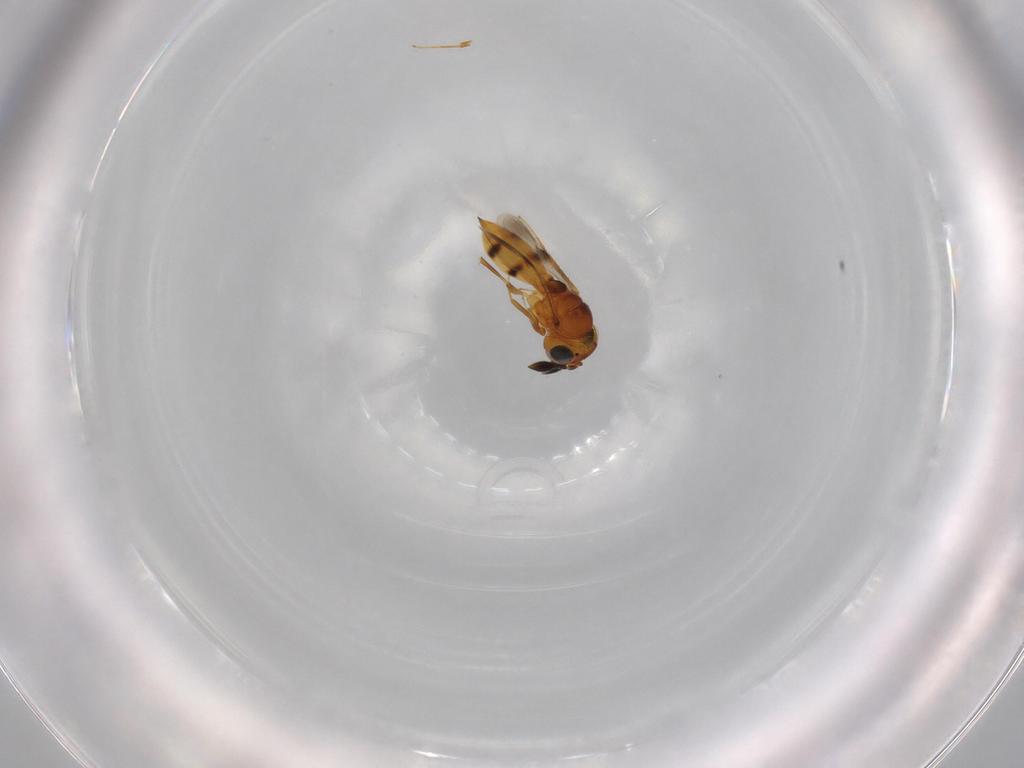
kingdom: Animalia
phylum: Arthropoda
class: Insecta
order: Hymenoptera
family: Scelionidae
